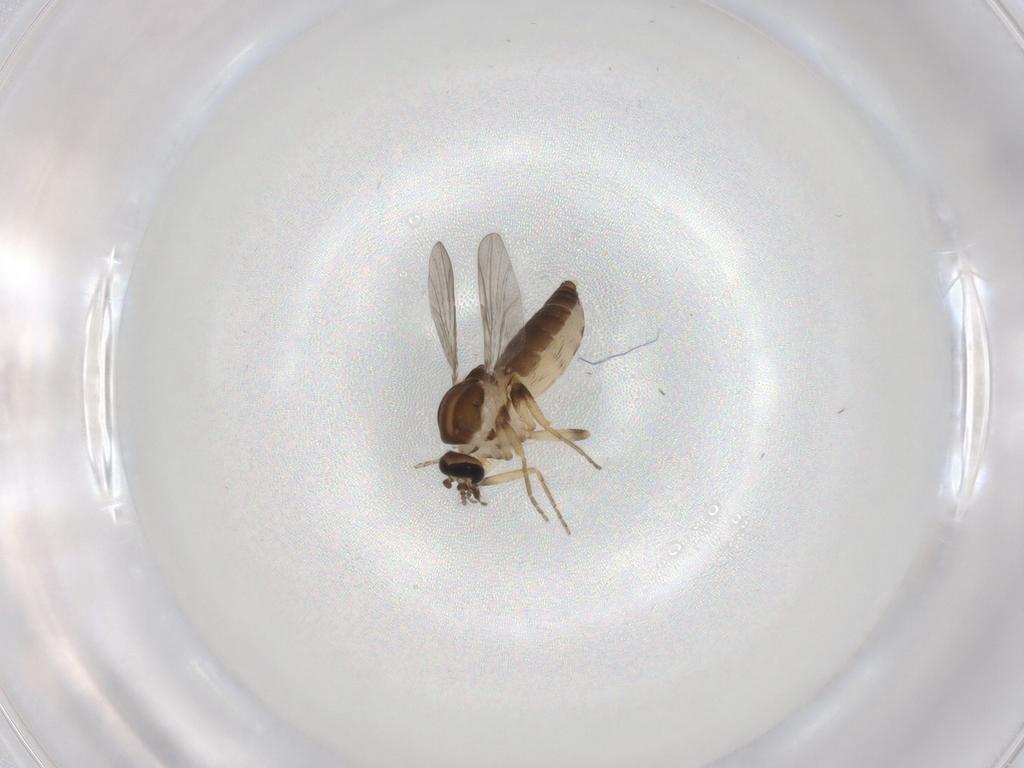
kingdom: Animalia
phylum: Arthropoda
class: Insecta
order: Diptera
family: Ceratopogonidae
